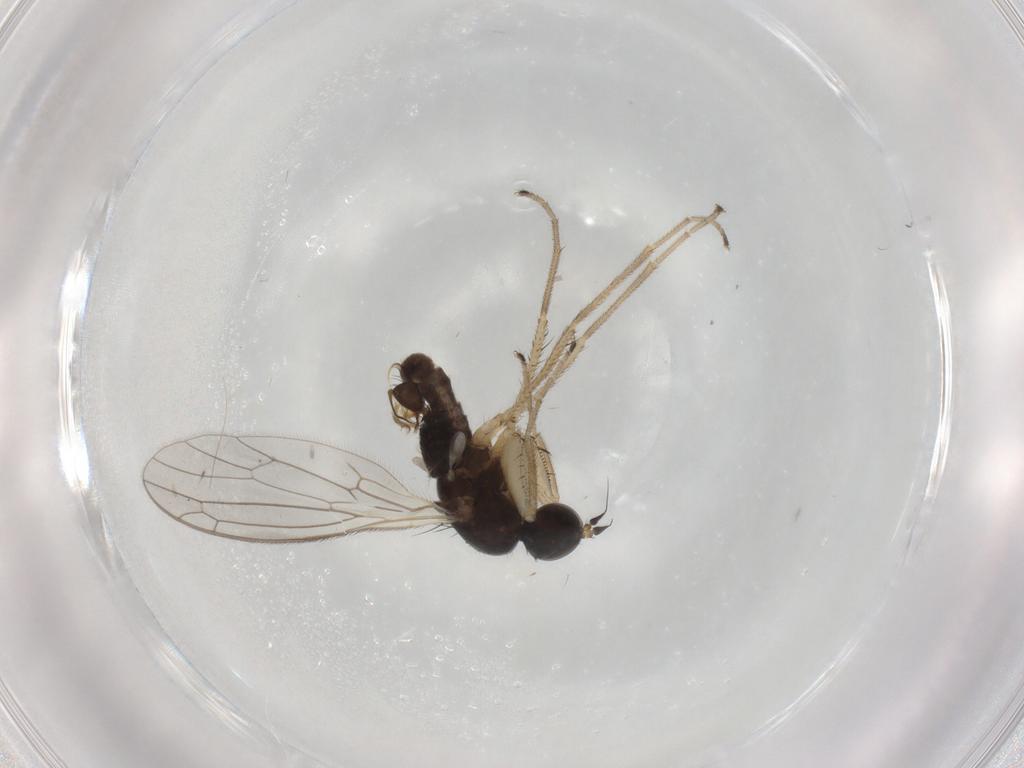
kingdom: Animalia
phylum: Arthropoda
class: Insecta
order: Diptera
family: Empididae
